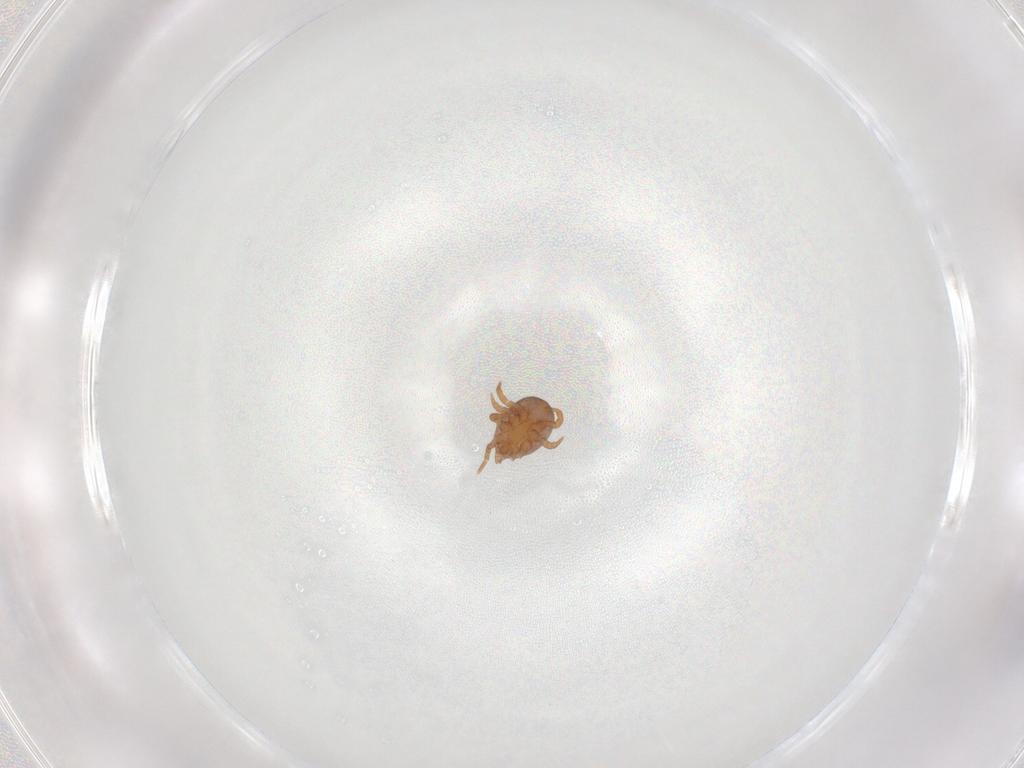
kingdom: Animalia
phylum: Arthropoda
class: Arachnida
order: Mesostigmata
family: Eviphididae
